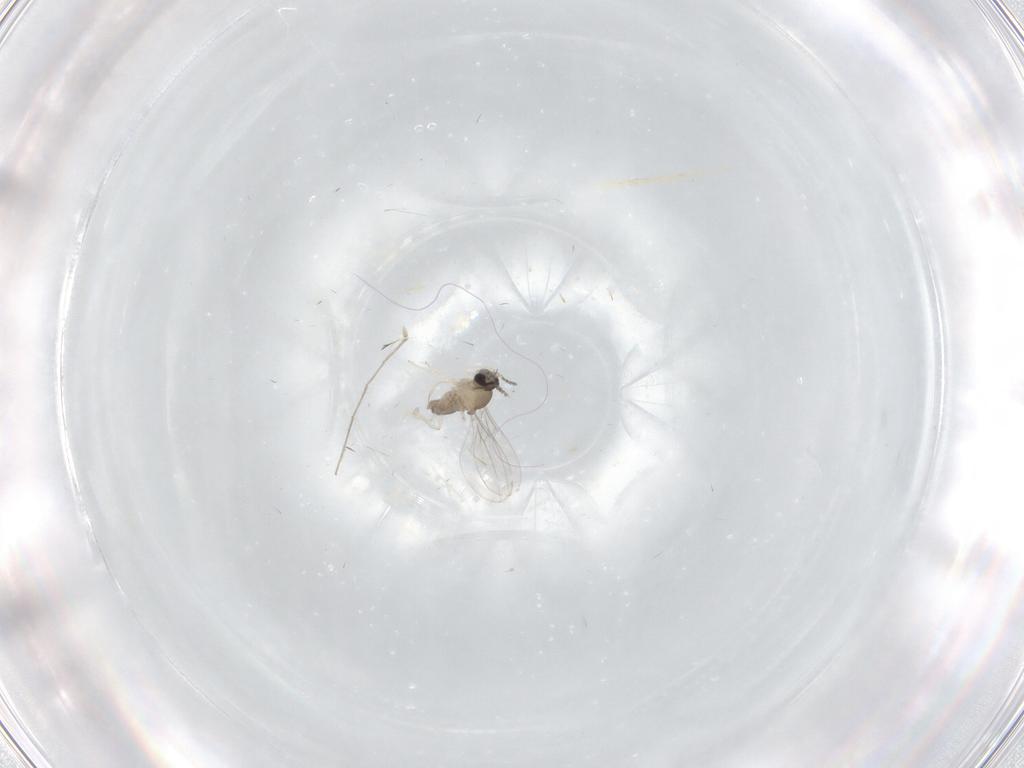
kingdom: Animalia
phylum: Arthropoda
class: Insecta
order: Diptera
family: Cecidomyiidae
